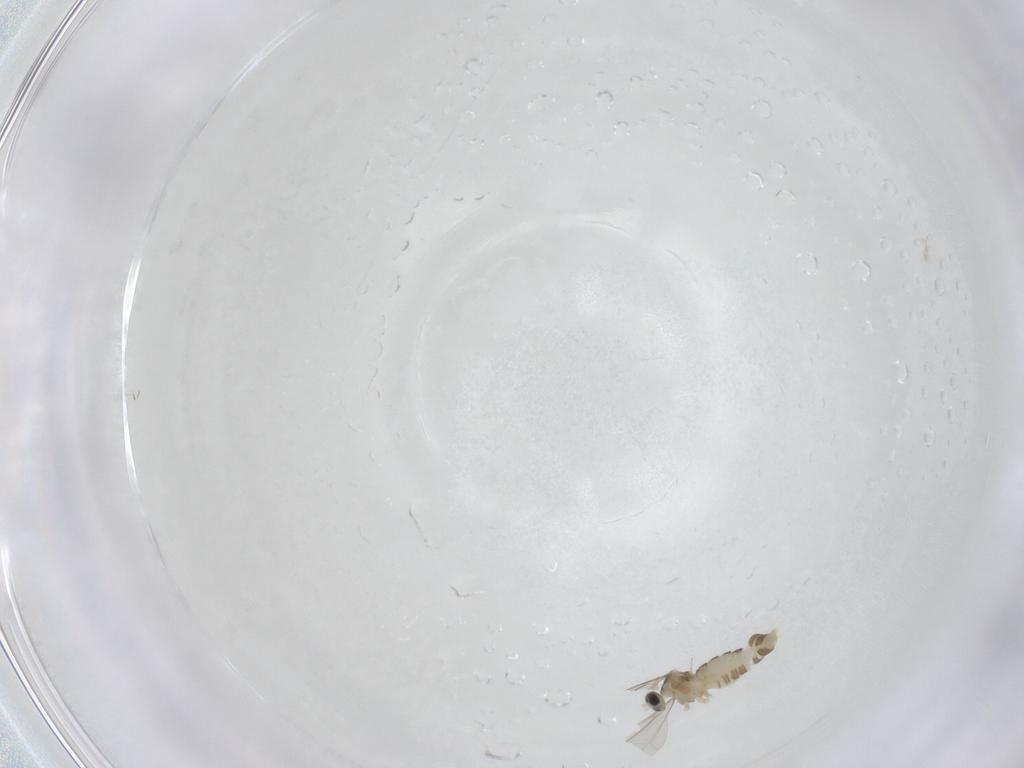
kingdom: Animalia
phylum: Arthropoda
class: Insecta
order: Diptera
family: Cecidomyiidae
